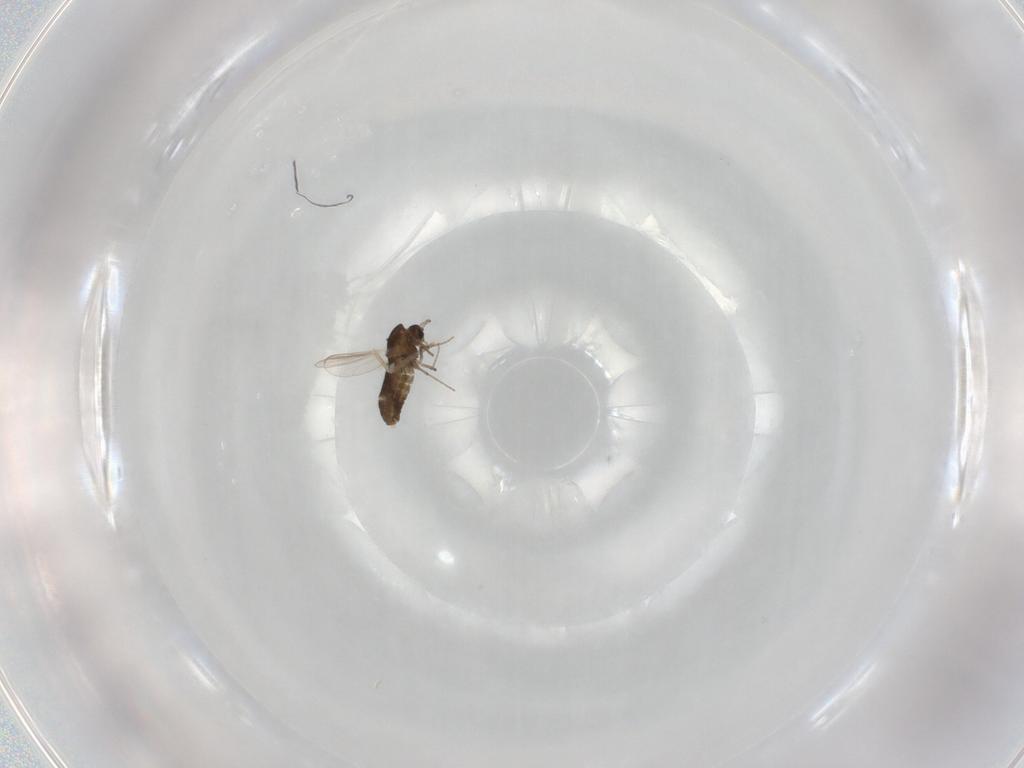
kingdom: Animalia
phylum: Arthropoda
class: Insecta
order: Diptera
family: Chironomidae
